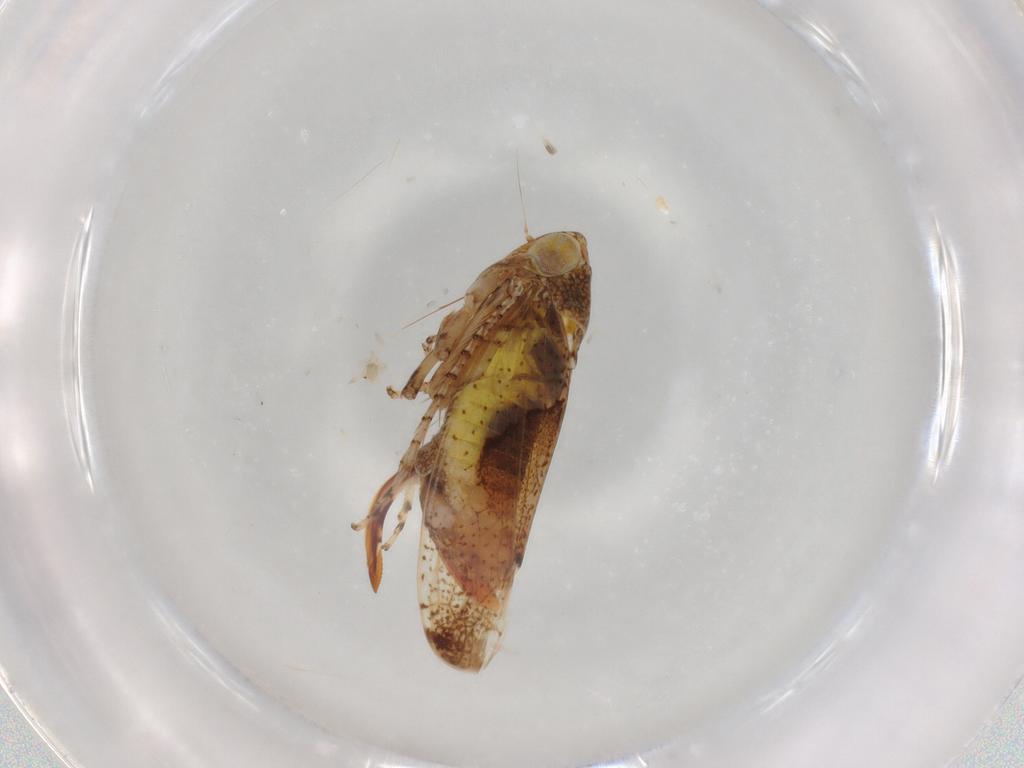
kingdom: Animalia
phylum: Arthropoda
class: Insecta
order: Hemiptera
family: Cicadellidae
